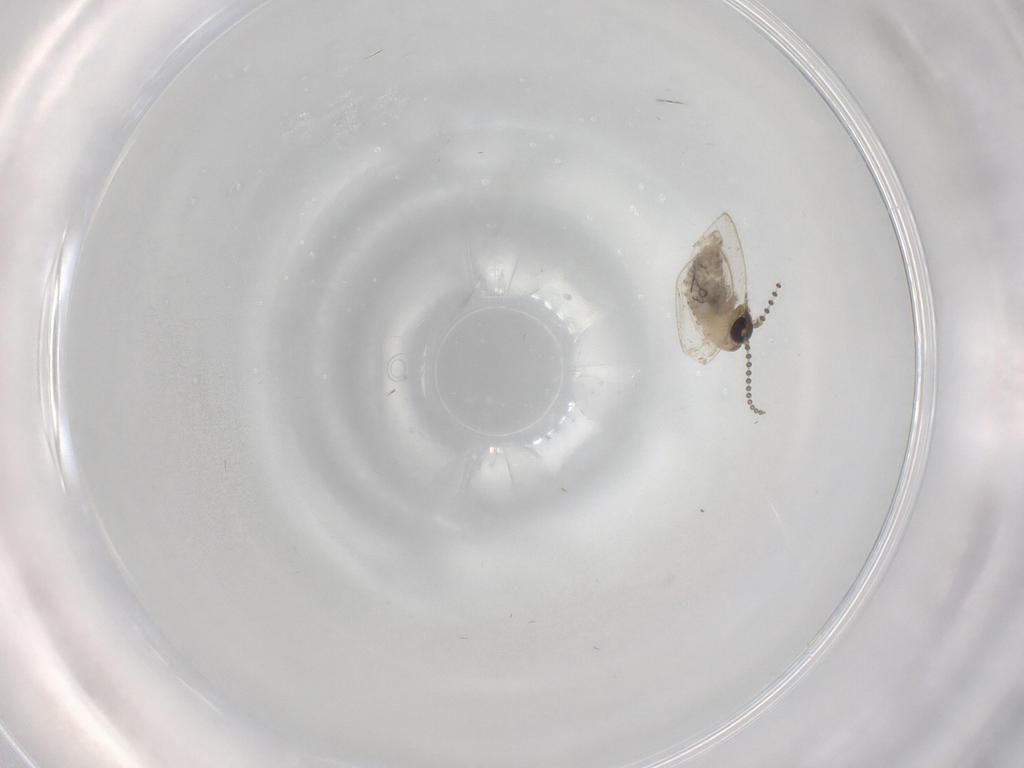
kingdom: Animalia
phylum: Arthropoda
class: Insecta
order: Diptera
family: Psychodidae
